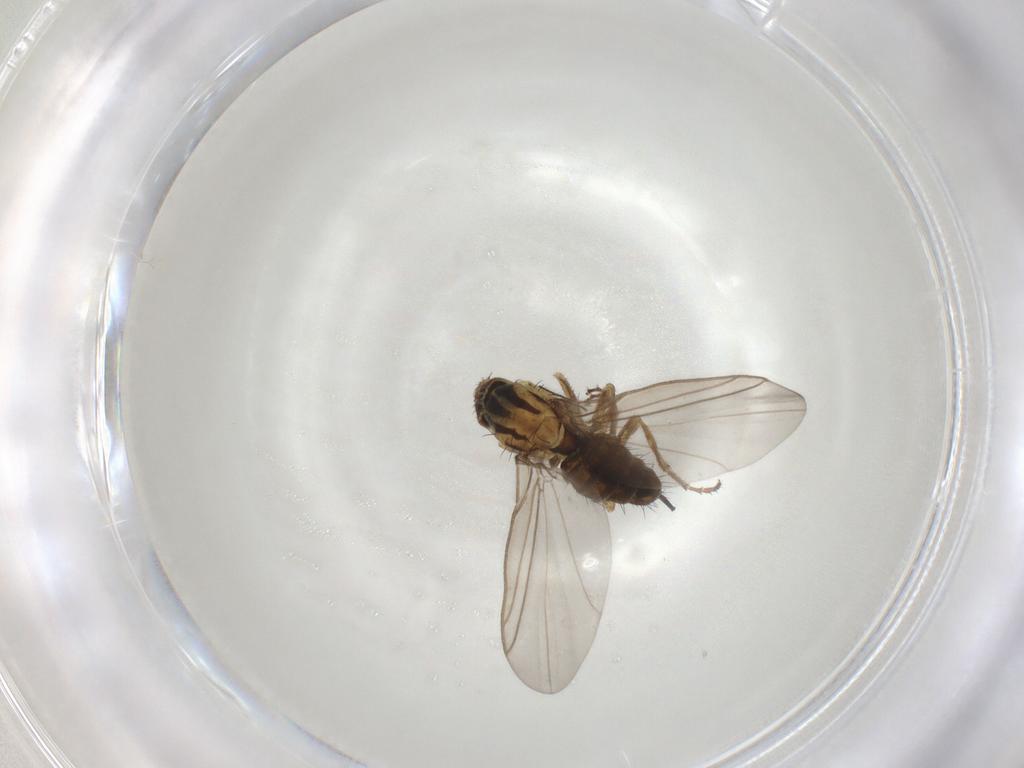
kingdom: Animalia
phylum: Arthropoda
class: Insecta
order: Diptera
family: Agromyzidae
